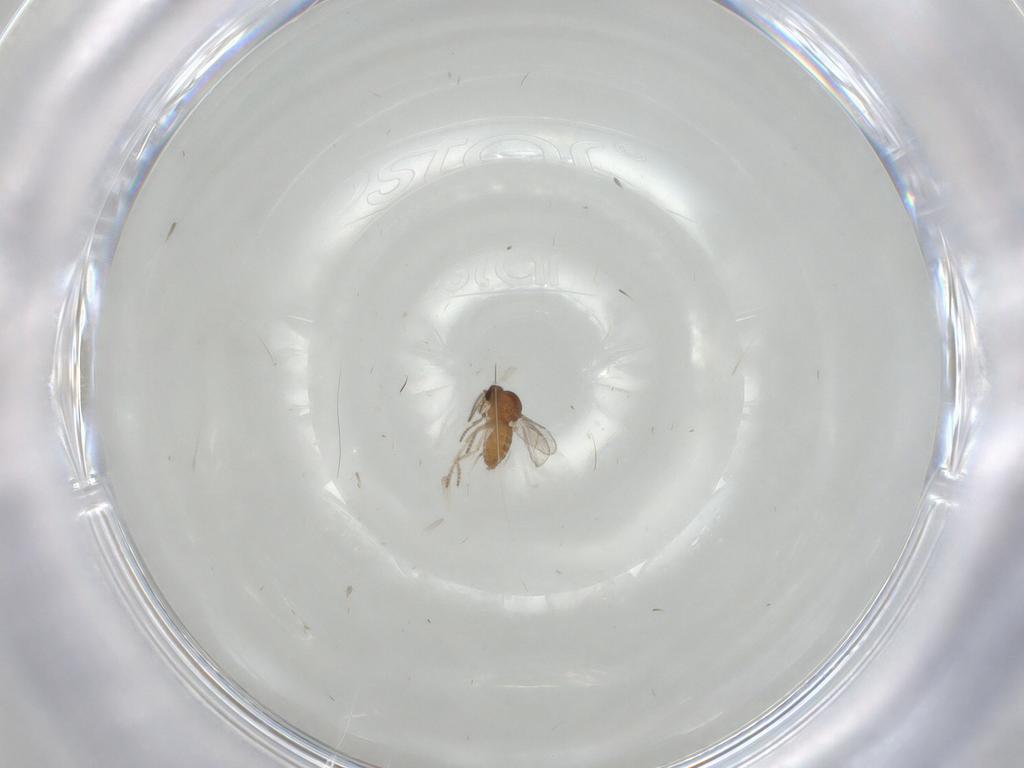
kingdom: Animalia
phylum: Arthropoda
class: Insecta
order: Diptera
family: Ceratopogonidae
